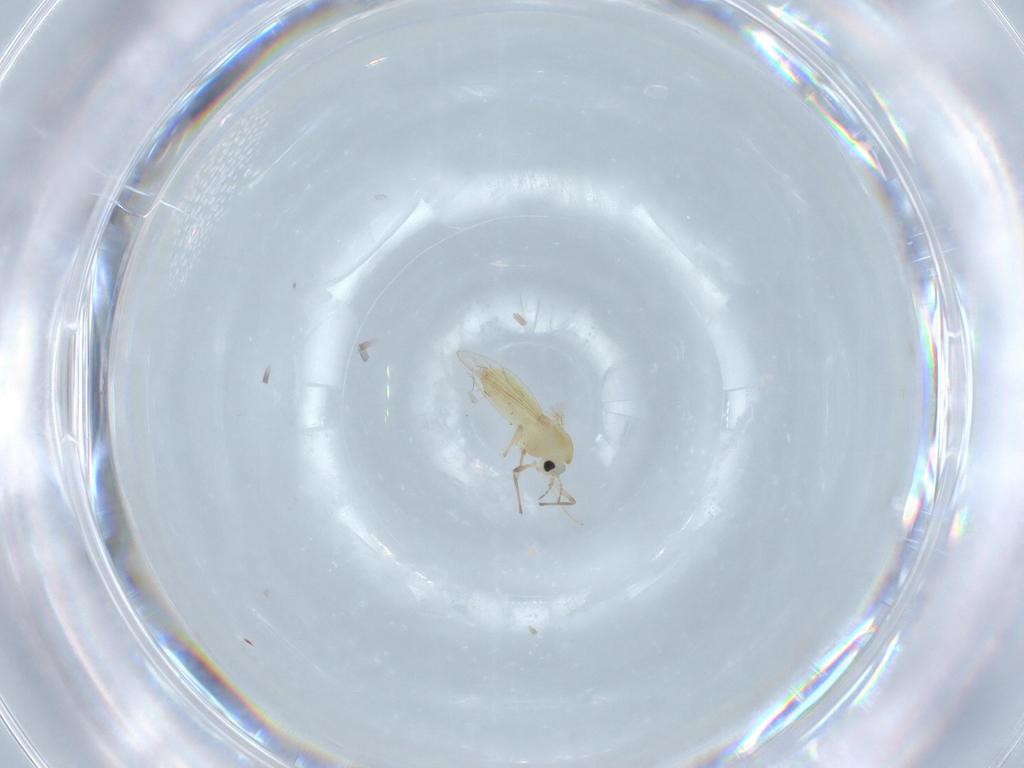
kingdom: Animalia
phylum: Arthropoda
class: Insecta
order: Diptera
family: Chironomidae
